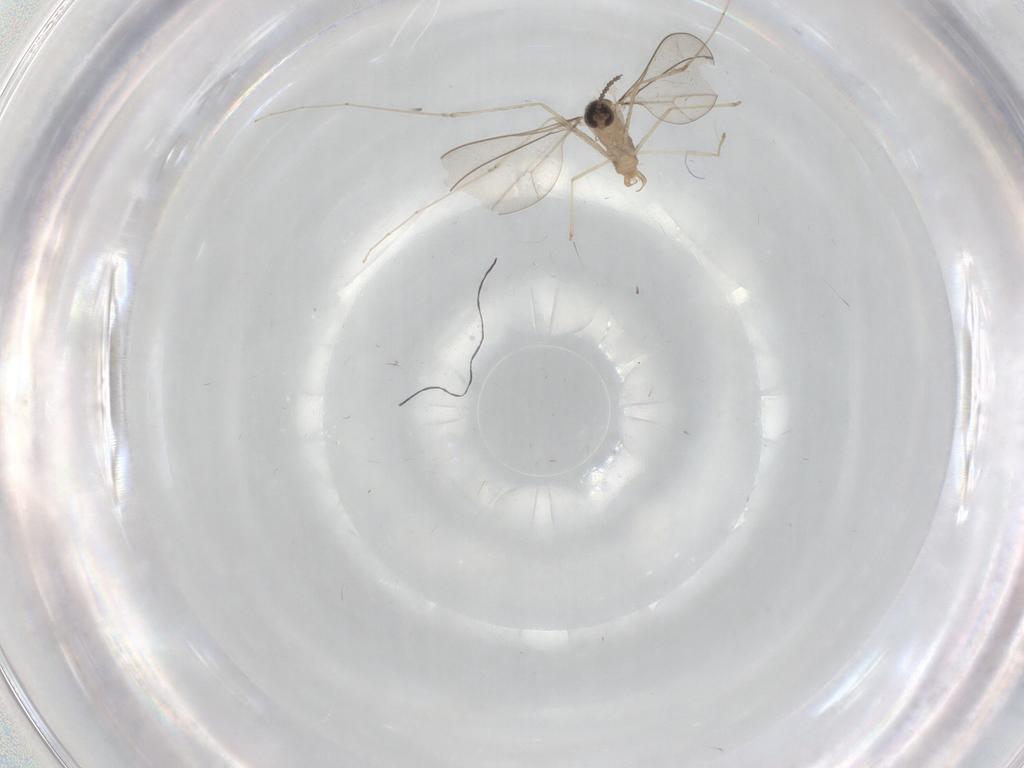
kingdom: Animalia
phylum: Arthropoda
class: Insecta
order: Diptera
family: Cecidomyiidae
